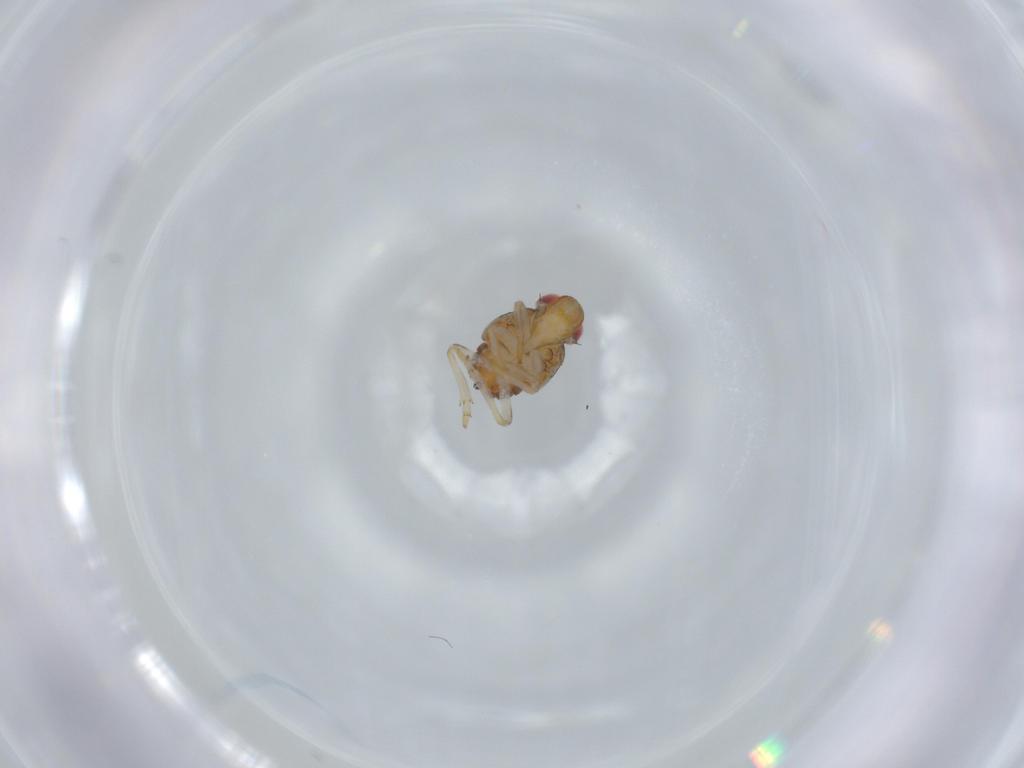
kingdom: Animalia
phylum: Arthropoda
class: Insecta
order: Hemiptera
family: Issidae
